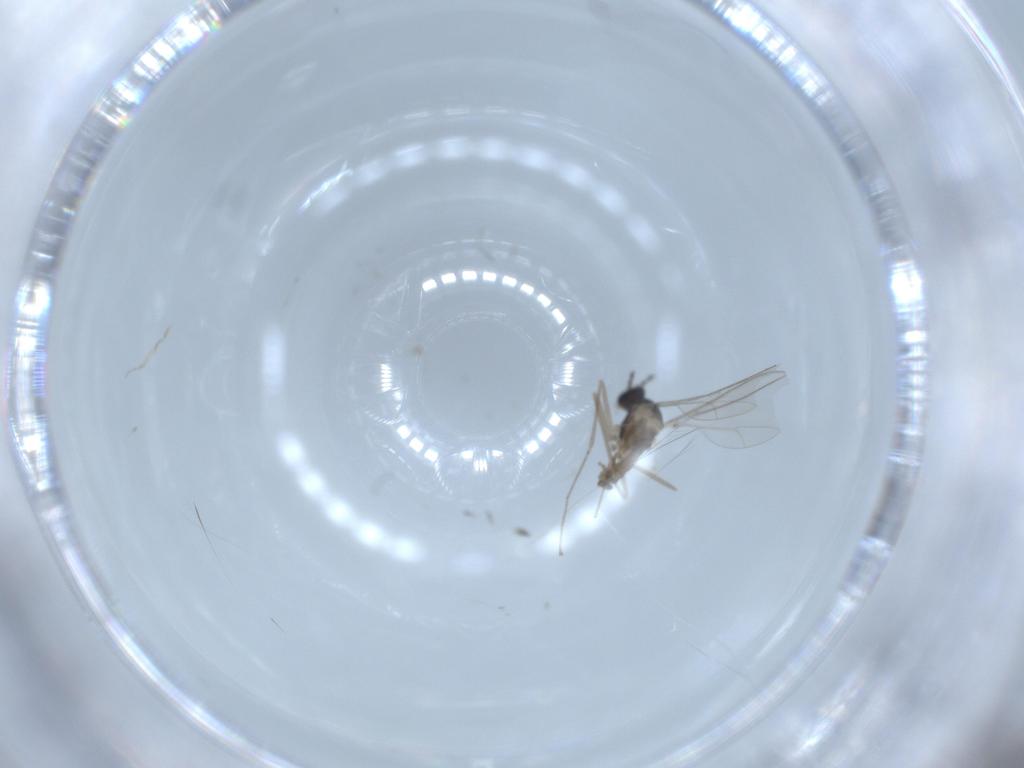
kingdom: Animalia
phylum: Arthropoda
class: Insecta
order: Diptera
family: Cecidomyiidae
